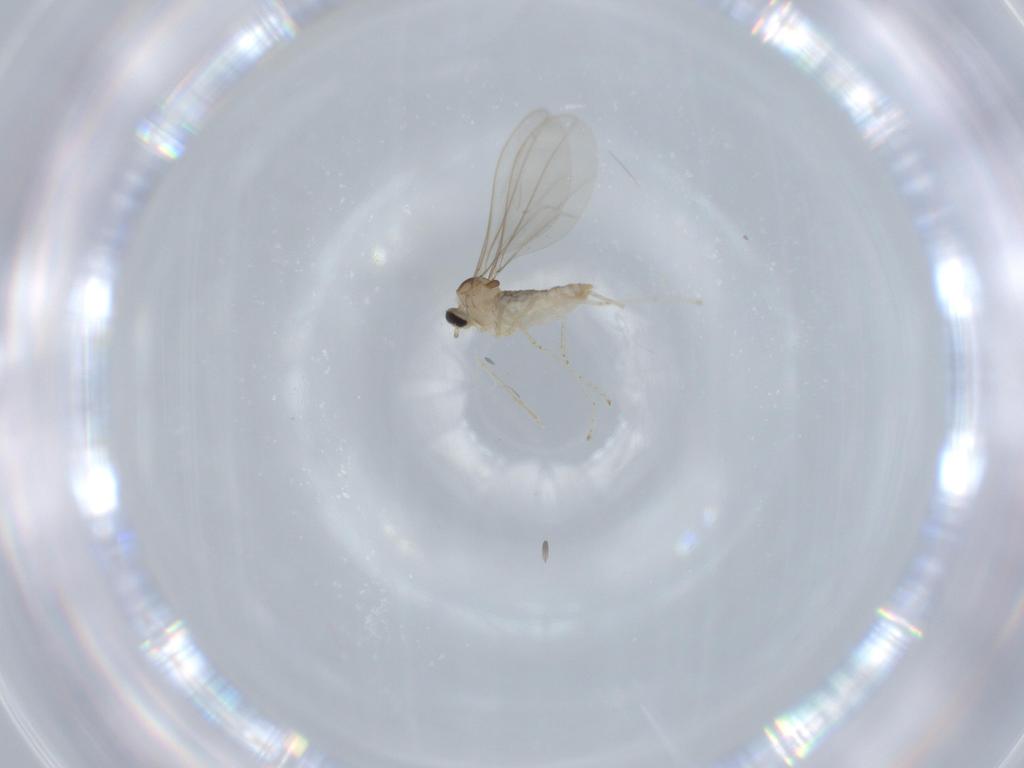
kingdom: Animalia
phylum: Arthropoda
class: Insecta
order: Diptera
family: Cecidomyiidae
